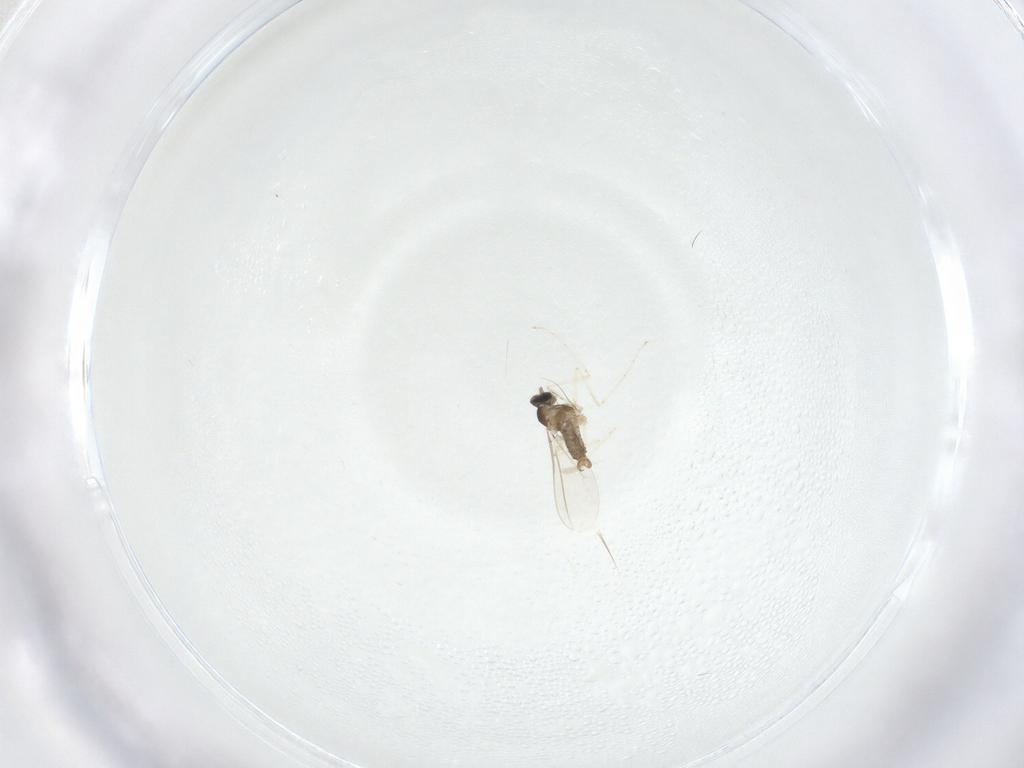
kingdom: Animalia
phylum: Arthropoda
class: Insecta
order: Diptera
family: Cecidomyiidae
